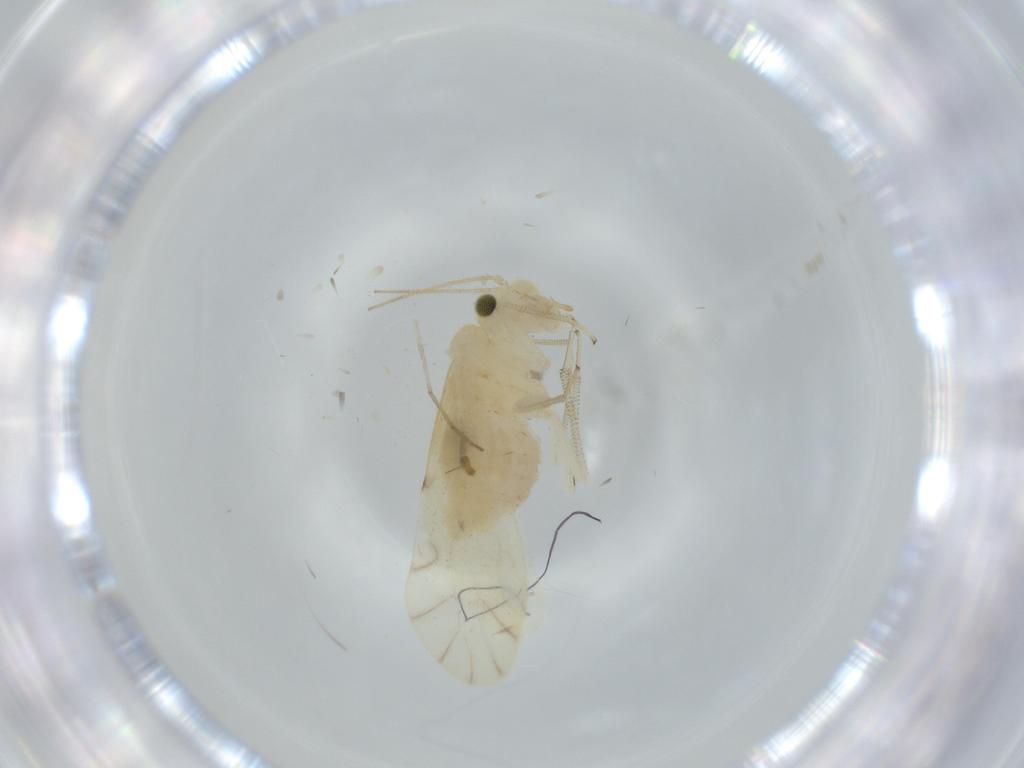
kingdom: Animalia
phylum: Arthropoda
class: Insecta
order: Psocodea
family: Caeciliusidae
